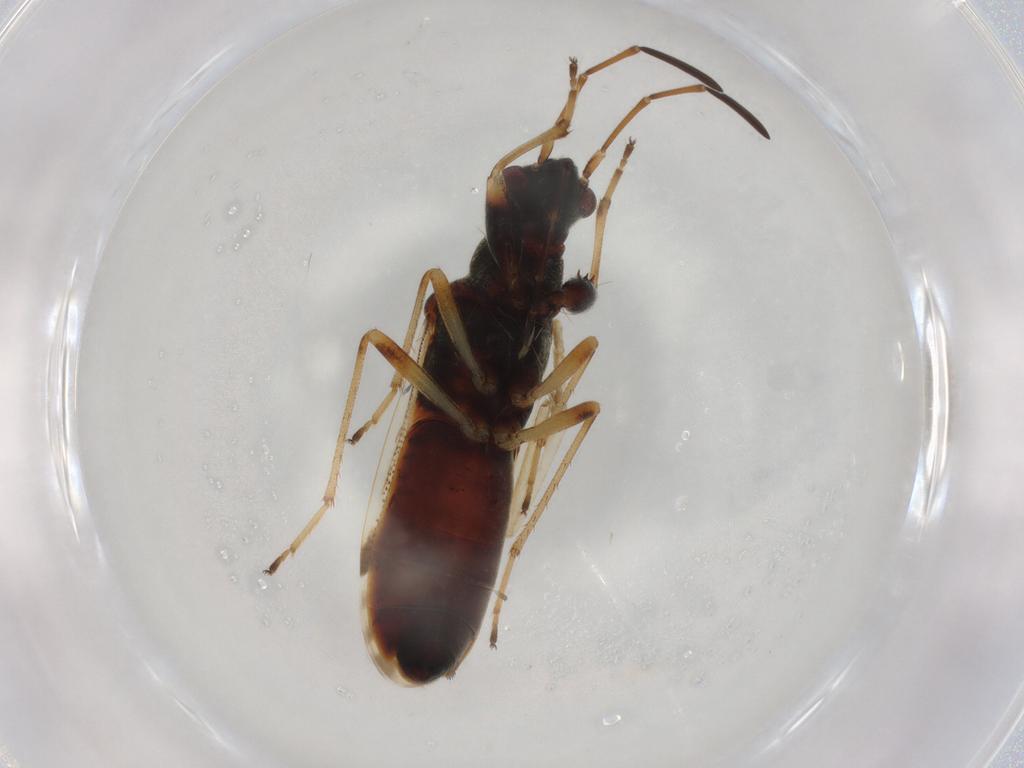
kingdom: Animalia
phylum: Arthropoda
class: Insecta
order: Hemiptera
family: Rhyparochromidae
